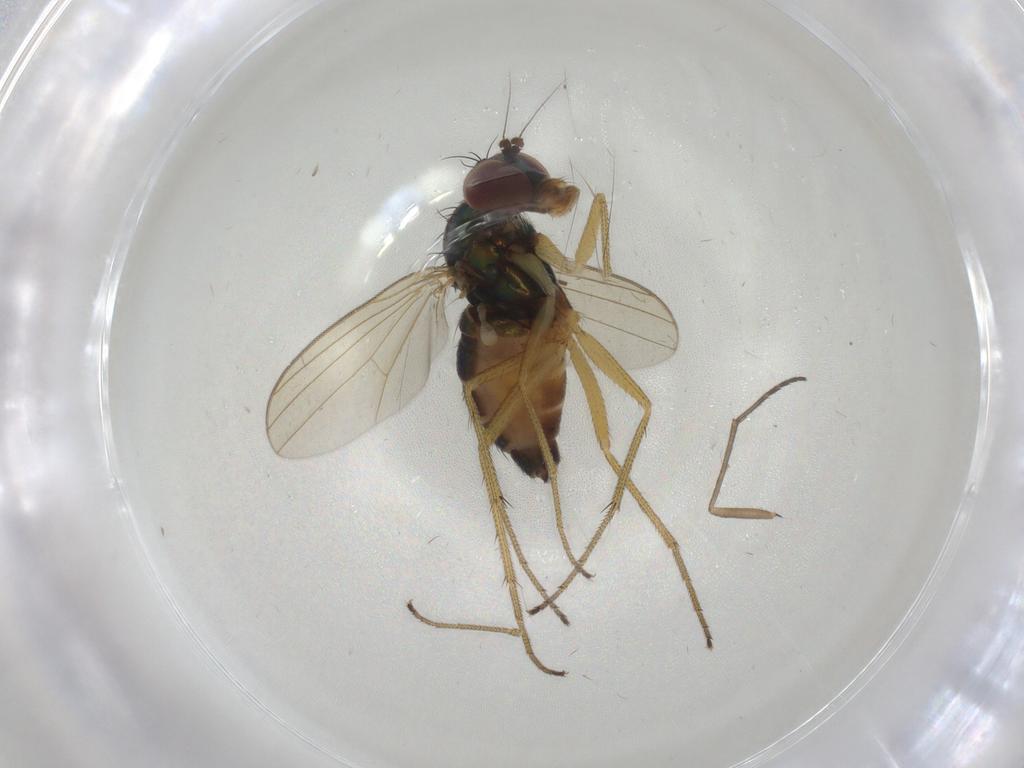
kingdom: Animalia
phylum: Arthropoda
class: Insecta
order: Diptera
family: Dolichopodidae
